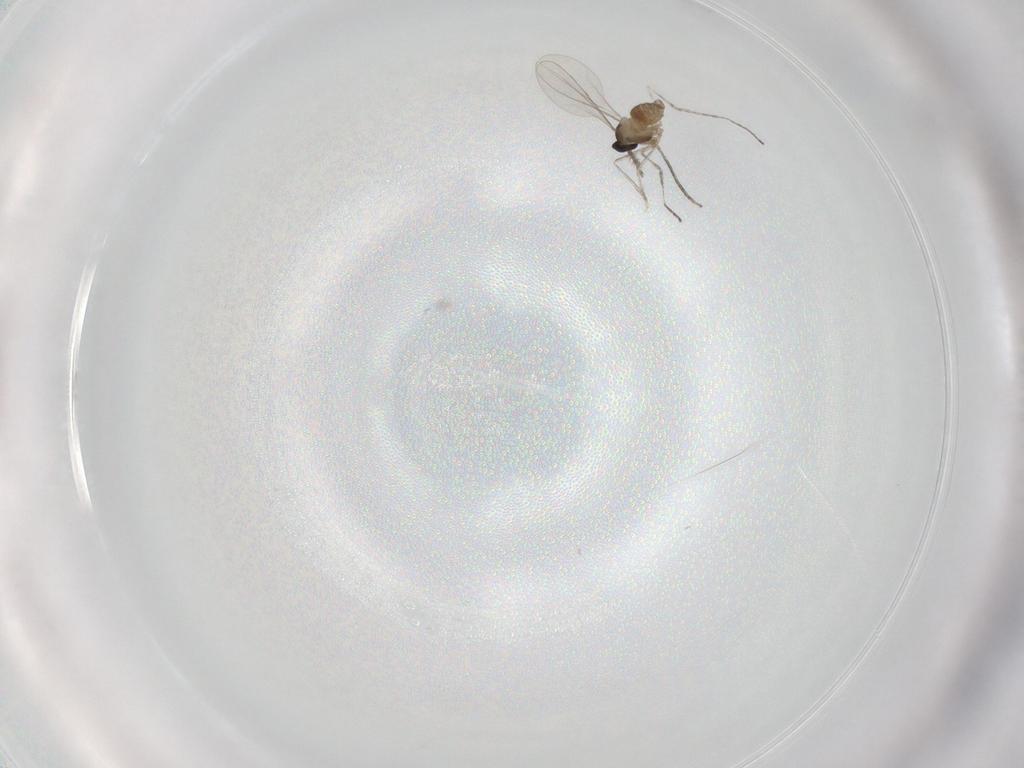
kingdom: Animalia
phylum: Arthropoda
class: Insecta
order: Diptera
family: Cecidomyiidae
